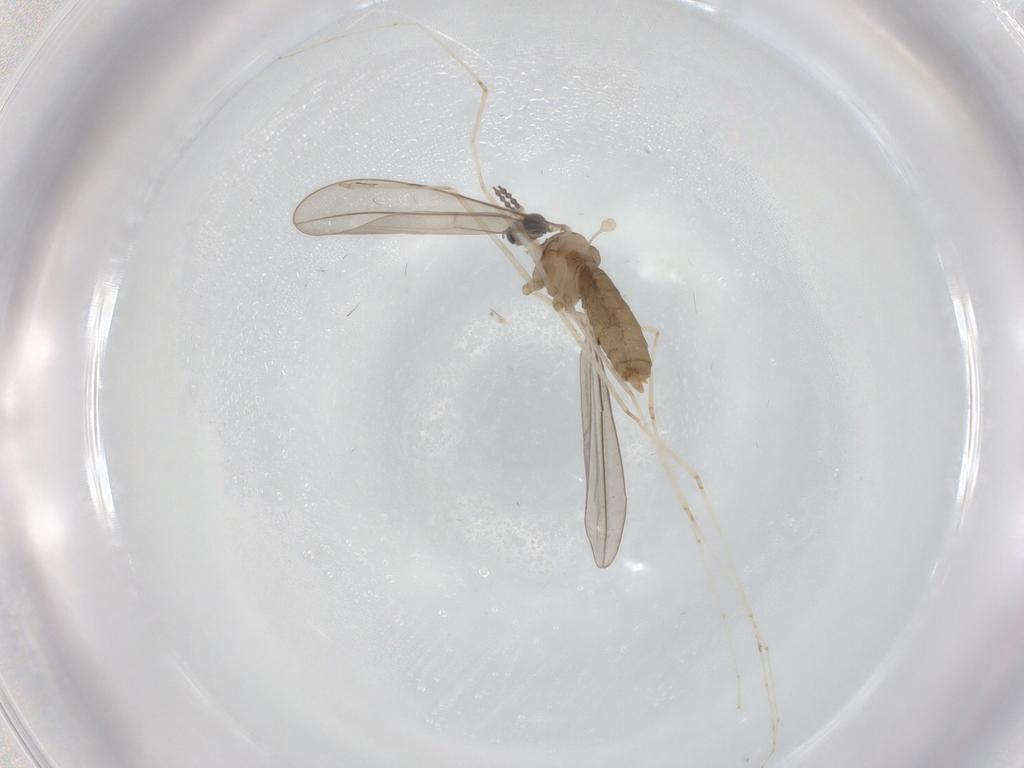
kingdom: Animalia
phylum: Arthropoda
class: Insecta
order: Diptera
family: Cecidomyiidae
